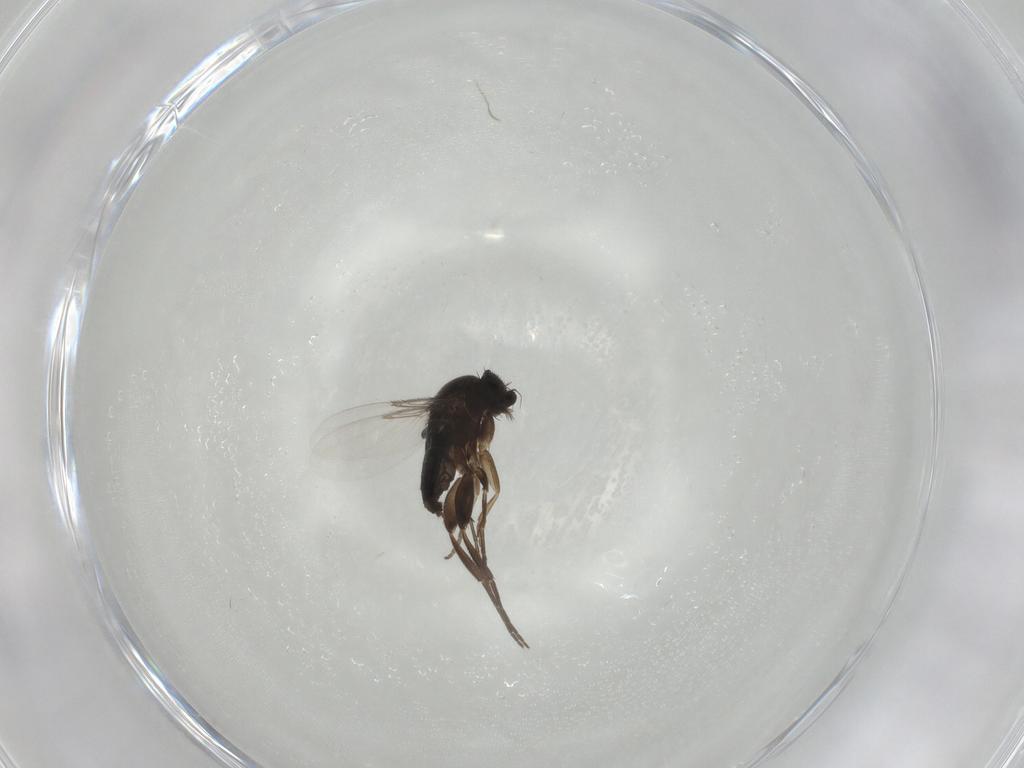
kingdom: Animalia
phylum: Arthropoda
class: Insecta
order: Diptera
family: Phoridae
